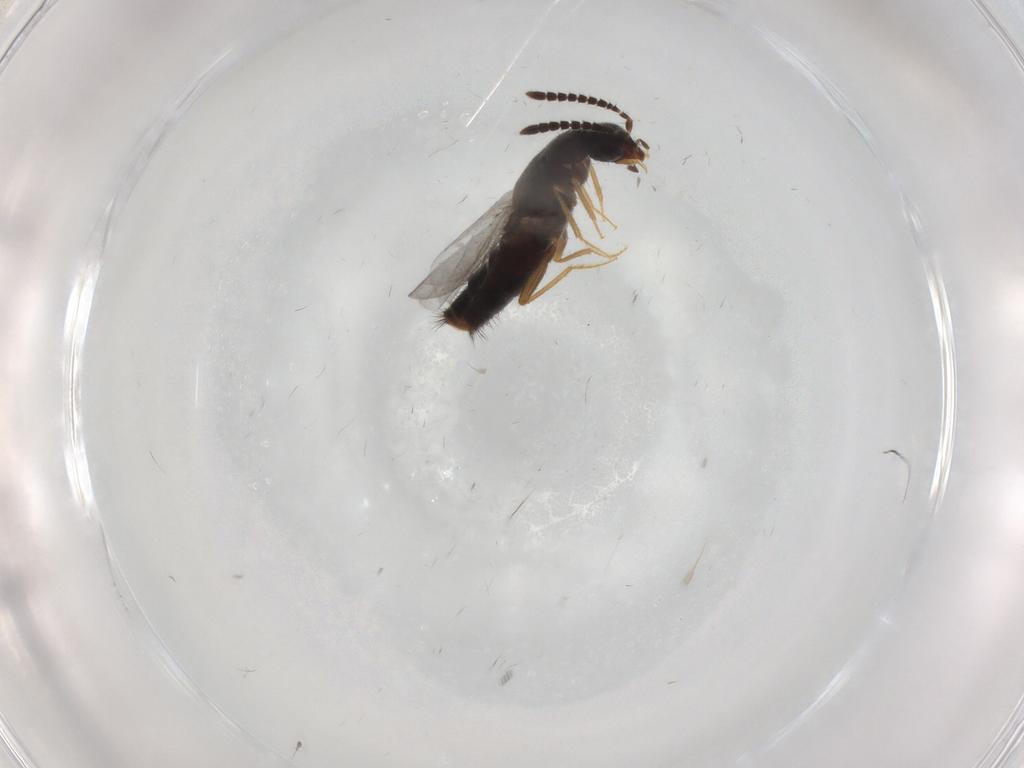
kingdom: Animalia
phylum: Arthropoda
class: Insecta
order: Coleoptera
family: Staphylinidae
